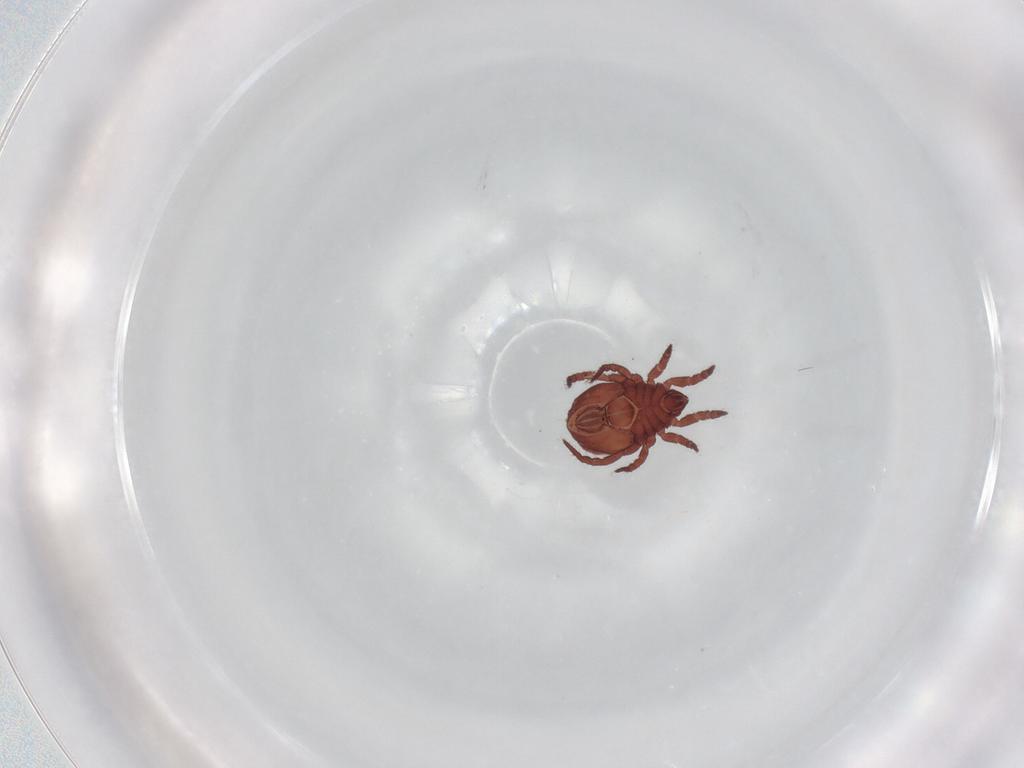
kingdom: Animalia
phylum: Arthropoda
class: Arachnida
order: Sarcoptiformes
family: Nothridae
